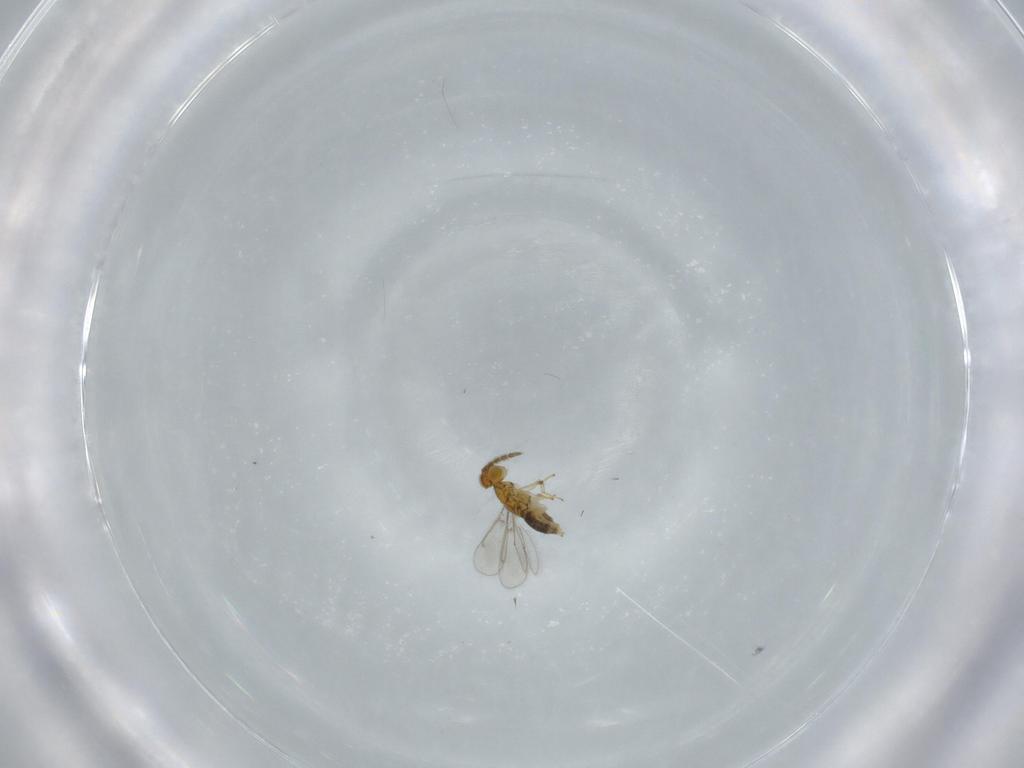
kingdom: Animalia
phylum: Arthropoda
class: Insecta
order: Hymenoptera
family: Aphelinidae
